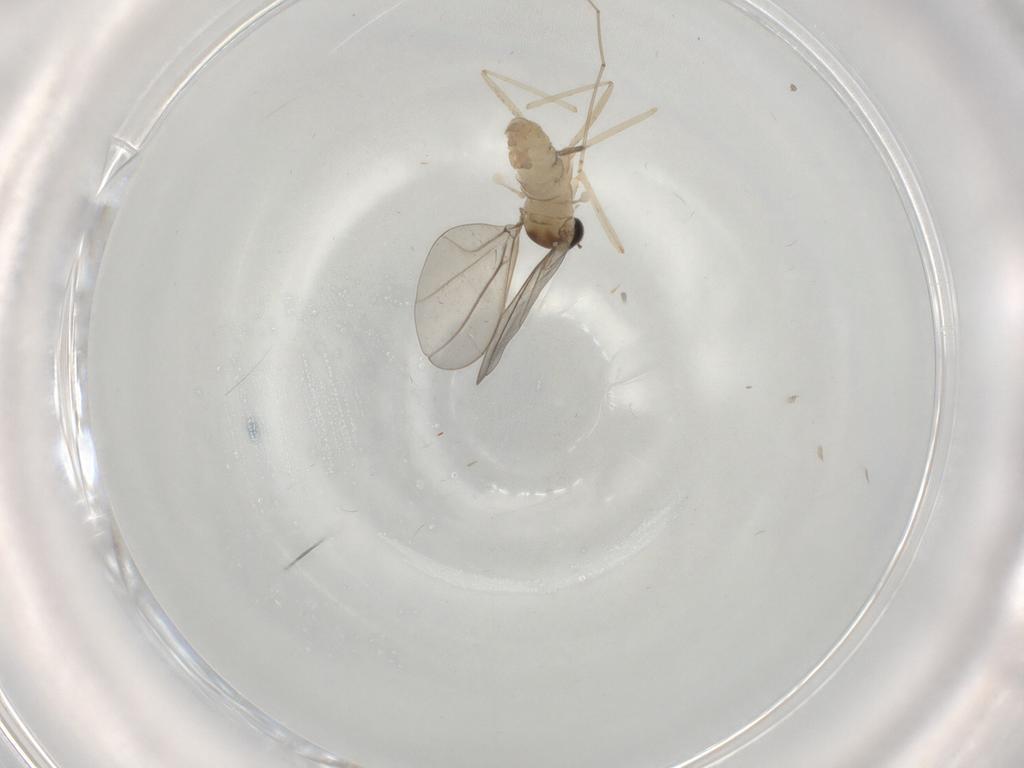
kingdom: Animalia
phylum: Arthropoda
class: Insecta
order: Diptera
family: Cecidomyiidae
